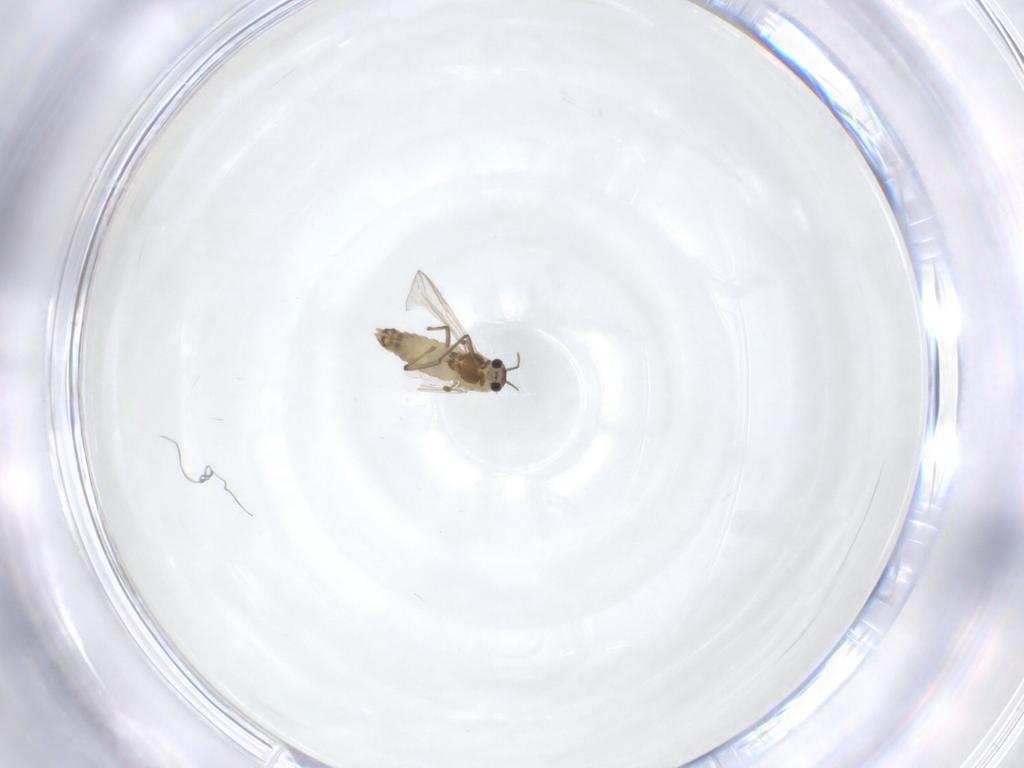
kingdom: Animalia
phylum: Arthropoda
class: Insecta
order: Diptera
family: Chironomidae
